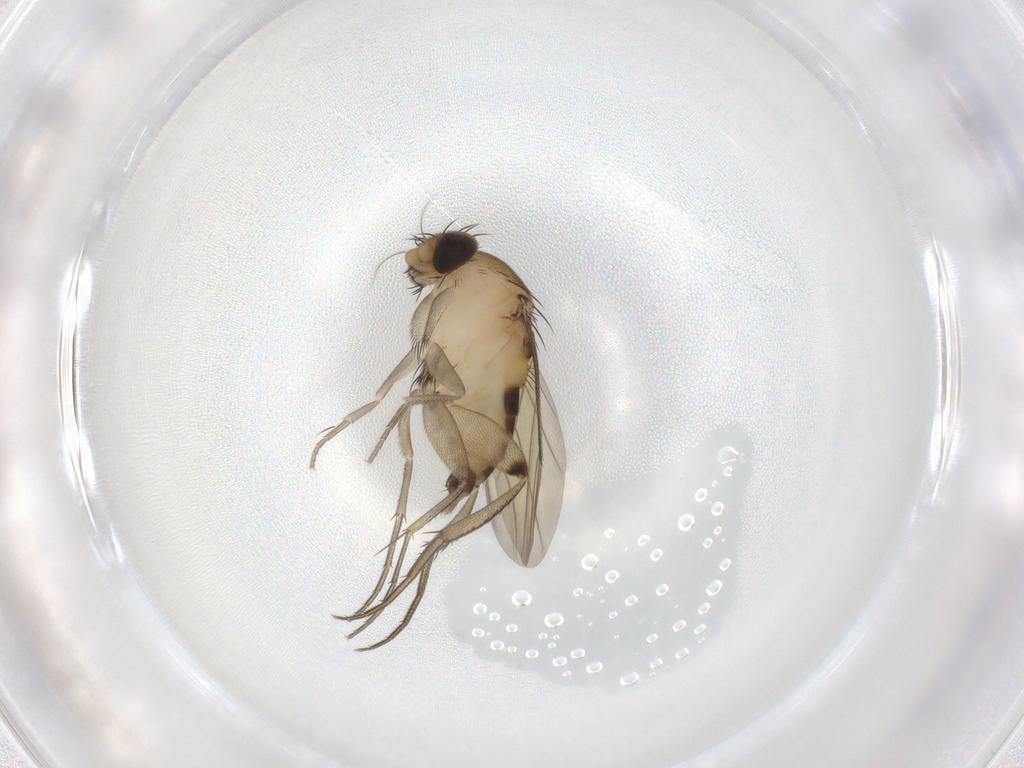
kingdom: Animalia
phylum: Arthropoda
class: Insecta
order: Diptera
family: Phoridae
